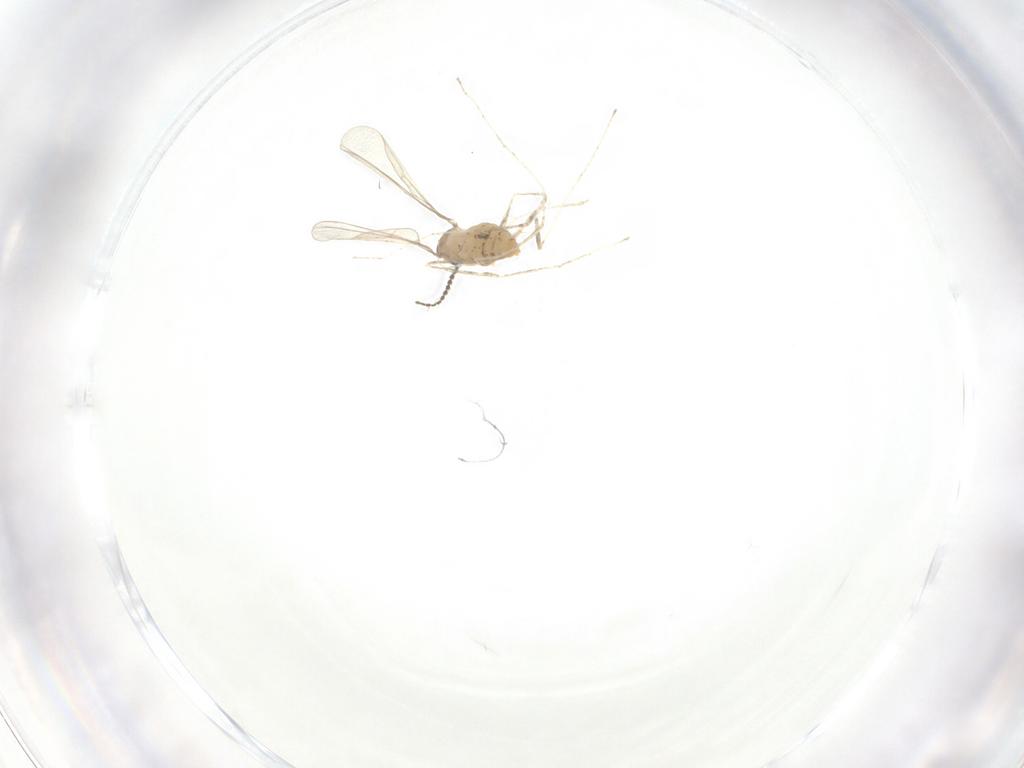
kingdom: Animalia
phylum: Arthropoda
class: Insecta
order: Diptera
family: Cecidomyiidae
